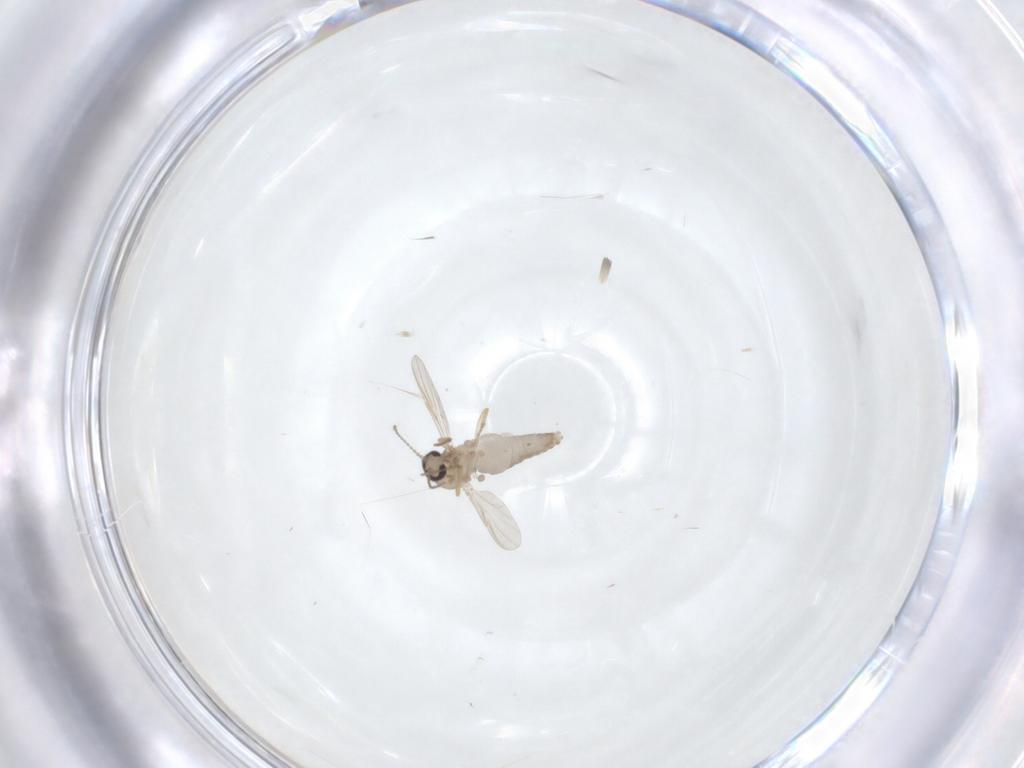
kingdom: Animalia
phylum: Arthropoda
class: Insecta
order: Diptera
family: Ceratopogonidae
